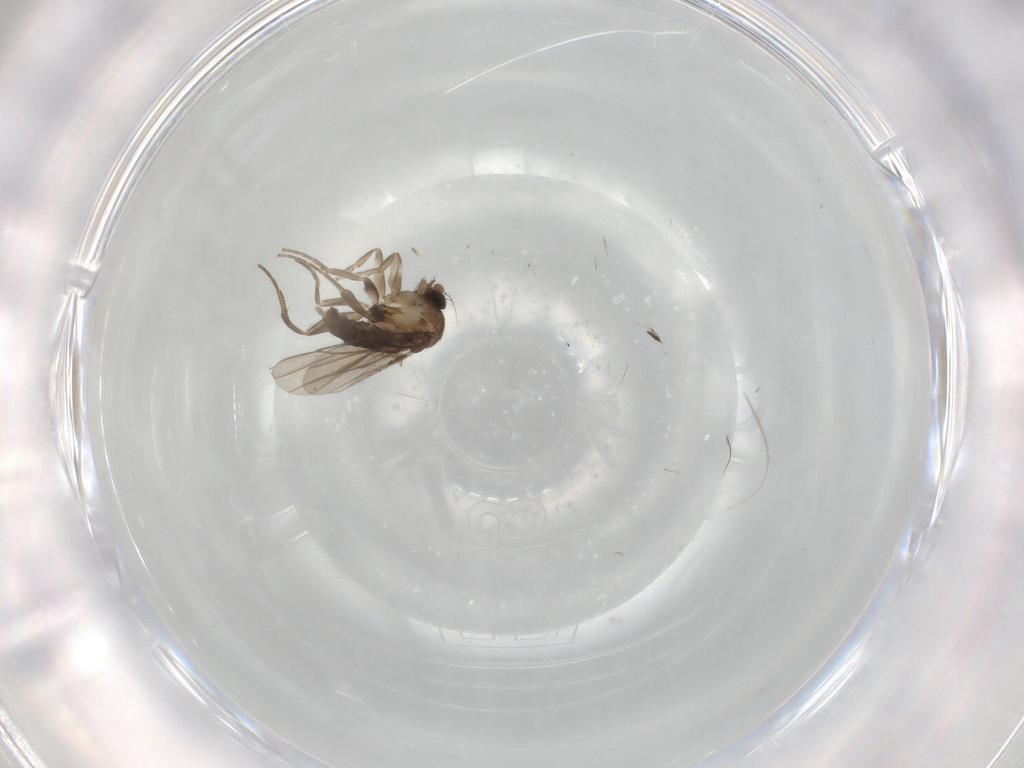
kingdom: Animalia
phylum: Arthropoda
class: Insecta
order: Diptera
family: Phoridae
